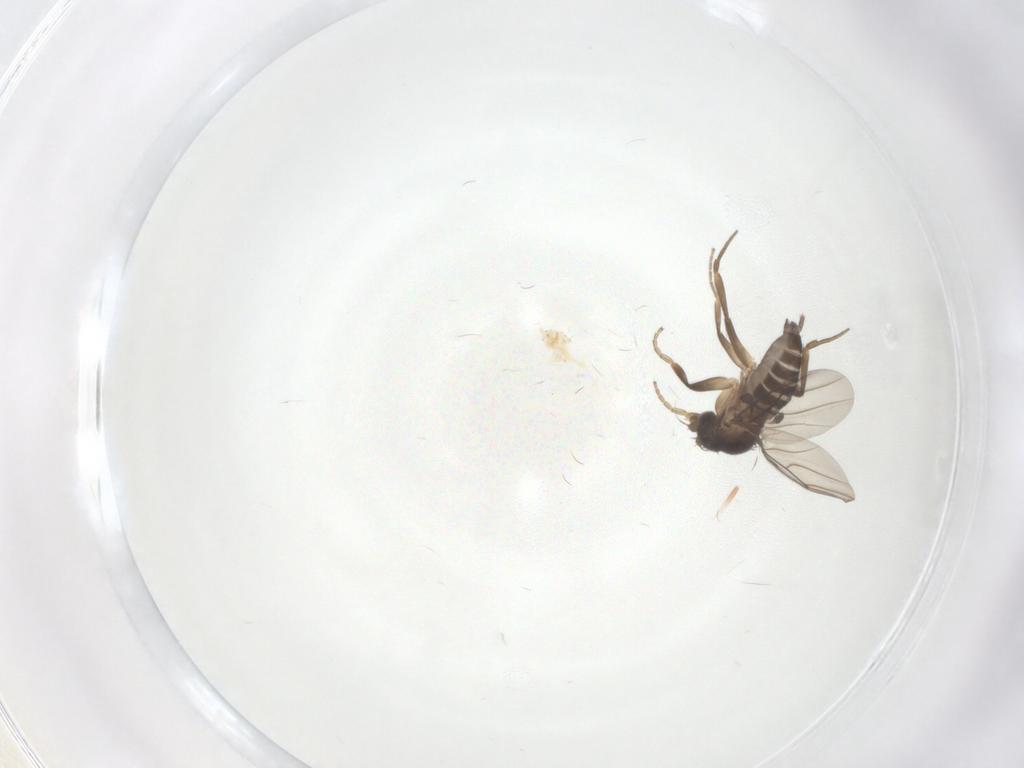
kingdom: Animalia
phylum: Arthropoda
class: Insecta
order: Diptera
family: Phoridae
